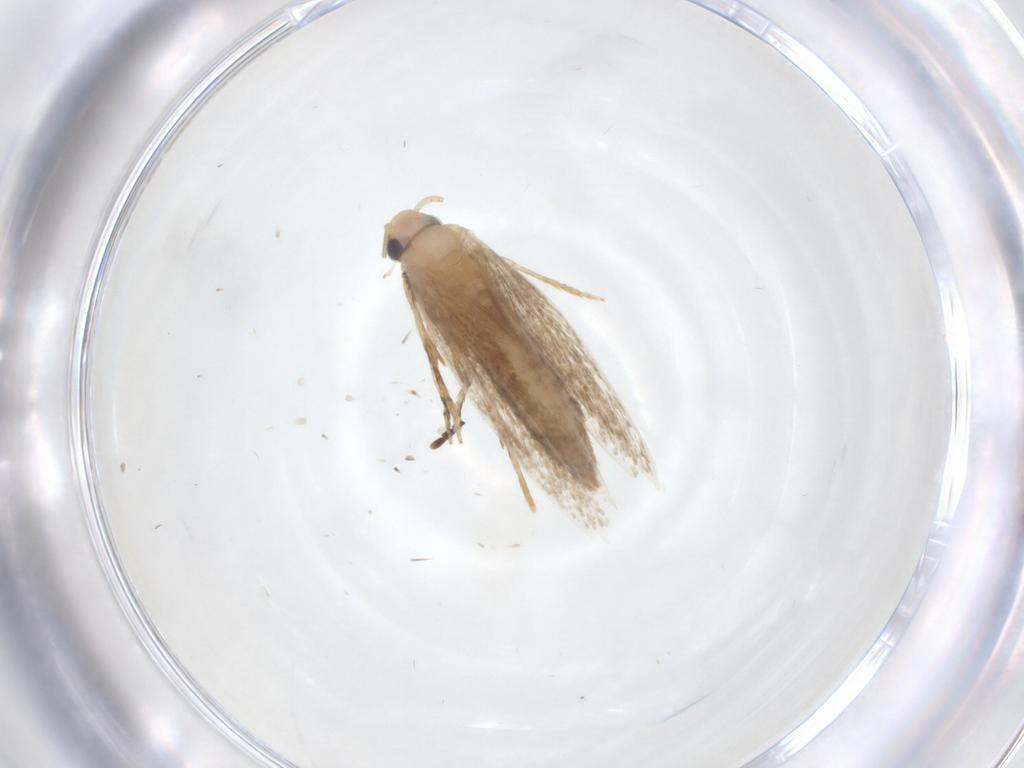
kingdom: Animalia
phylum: Arthropoda
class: Insecta
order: Lepidoptera
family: Tineidae
